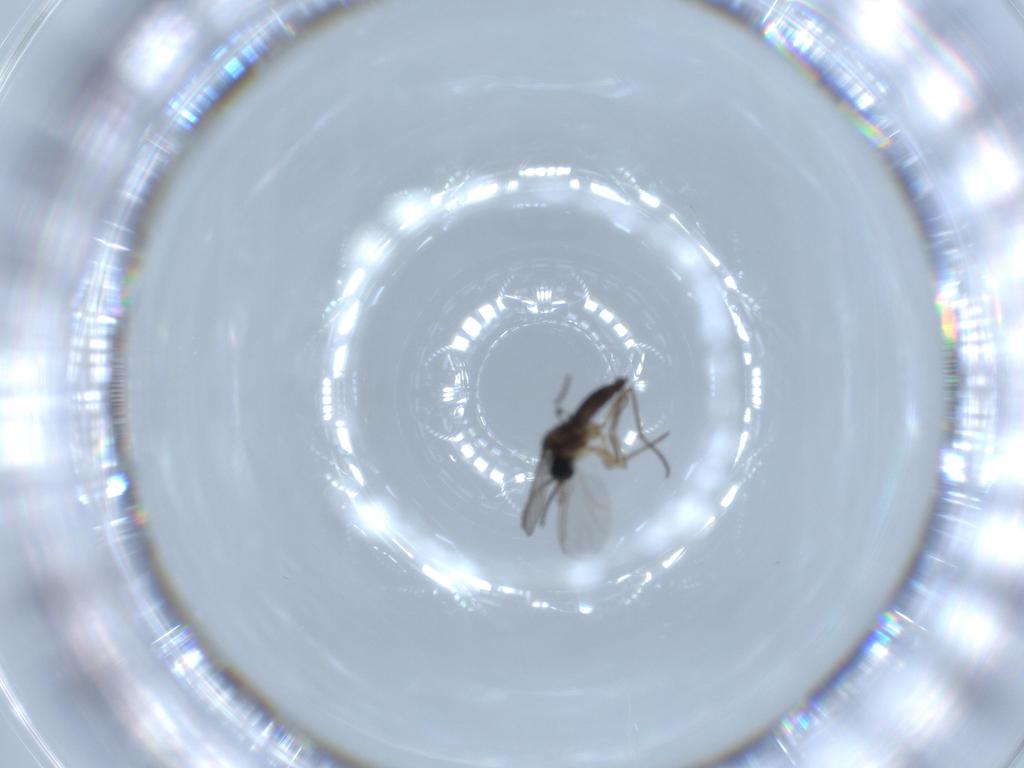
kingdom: Animalia
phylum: Arthropoda
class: Insecta
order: Diptera
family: Sciaridae
